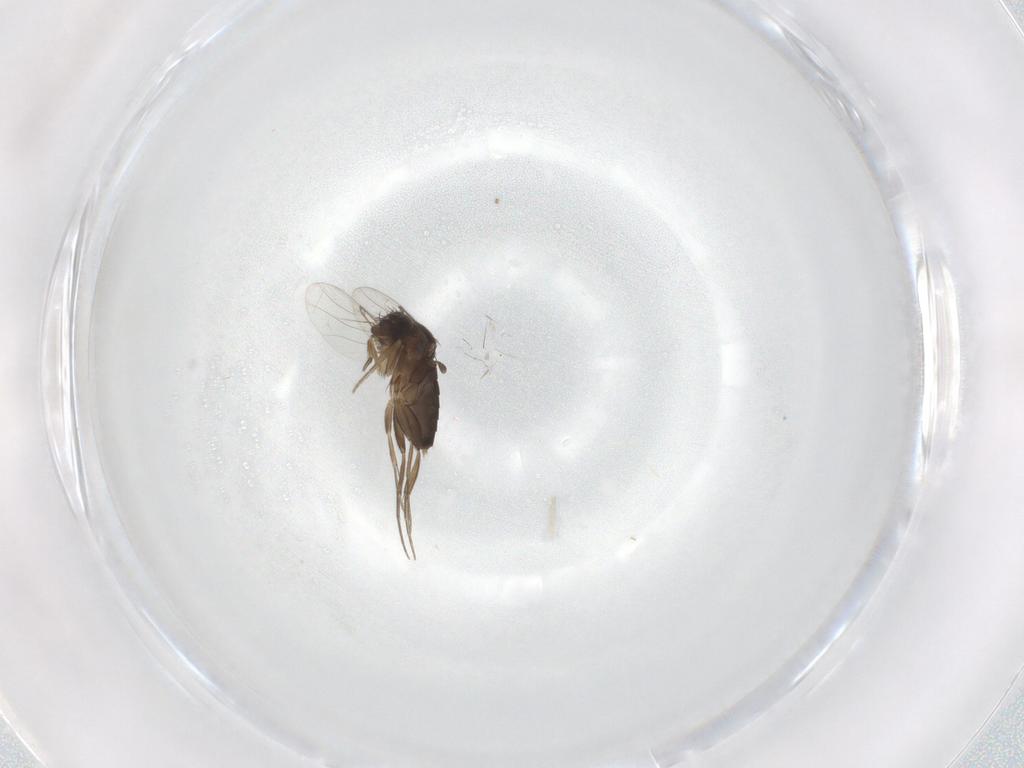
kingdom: Animalia
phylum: Arthropoda
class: Insecta
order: Diptera
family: Phoridae
